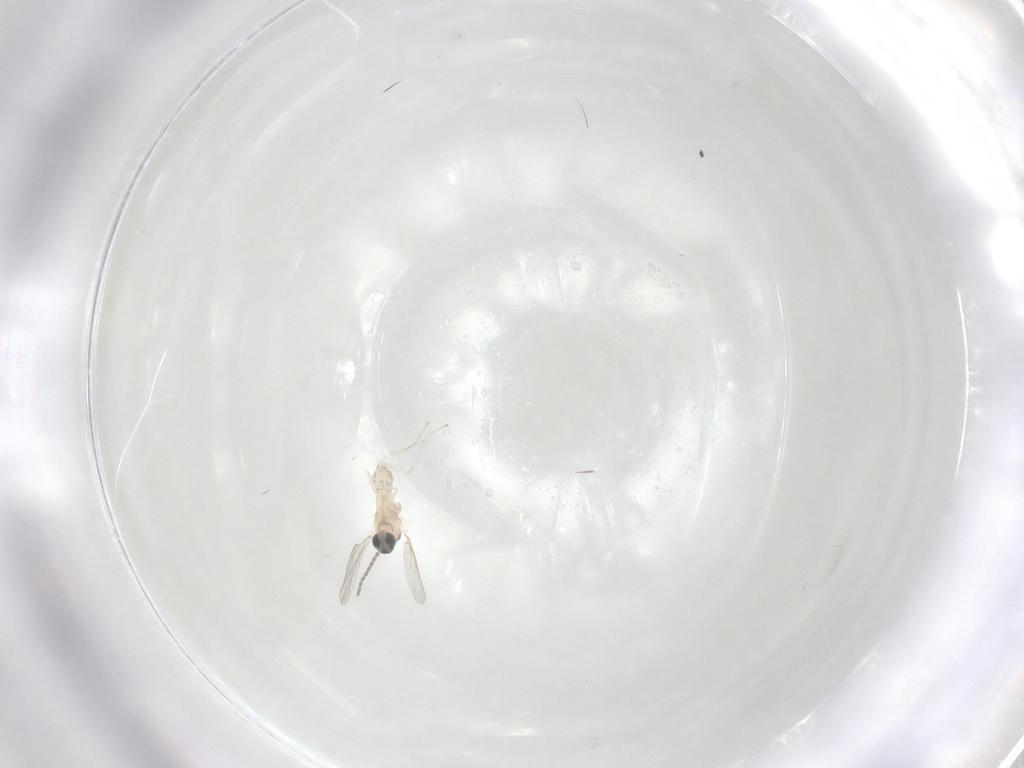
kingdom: Animalia
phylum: Arthropoda
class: Insecta
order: Diptera
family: Cecidomyiidae
